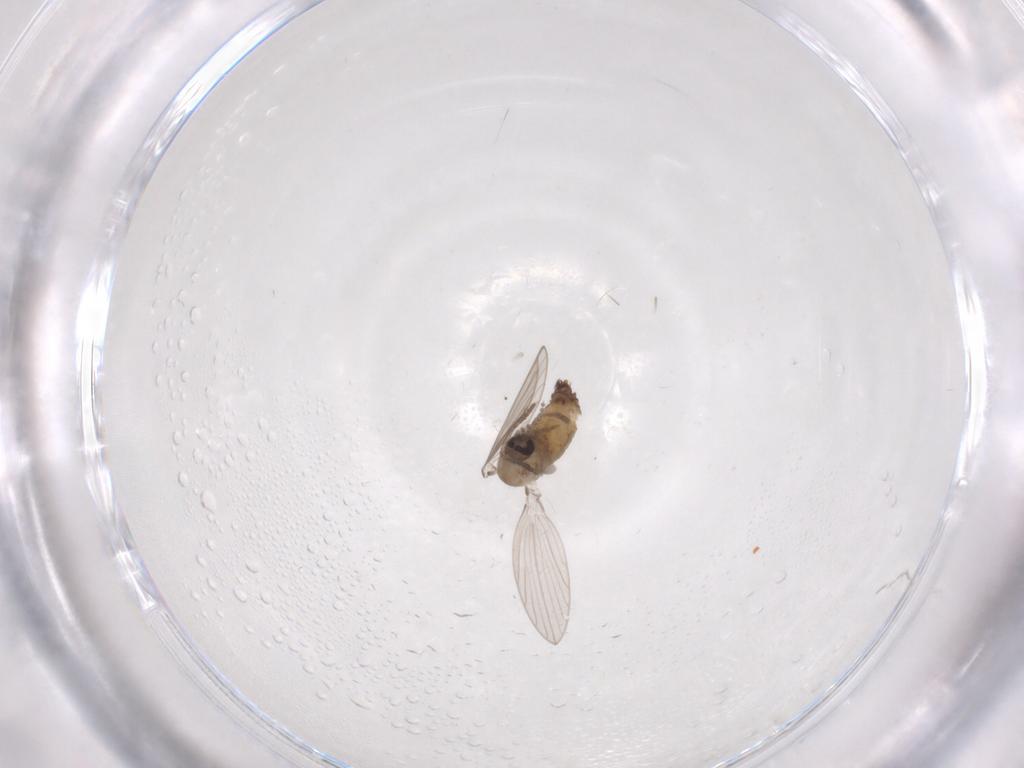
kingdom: Animalia
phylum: Arthropoda
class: Insecta
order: Diptera
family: Psychodidae
